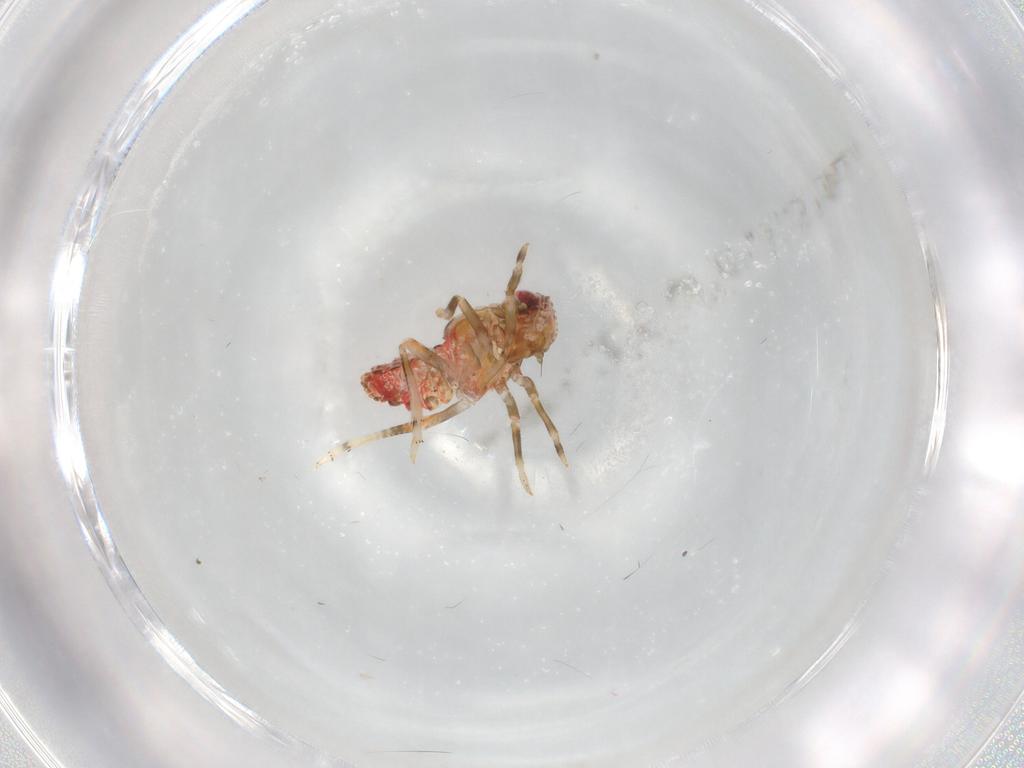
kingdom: Animalia
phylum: Arthropoda
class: Insecta
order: Hemiptera
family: Tropiduchidae
